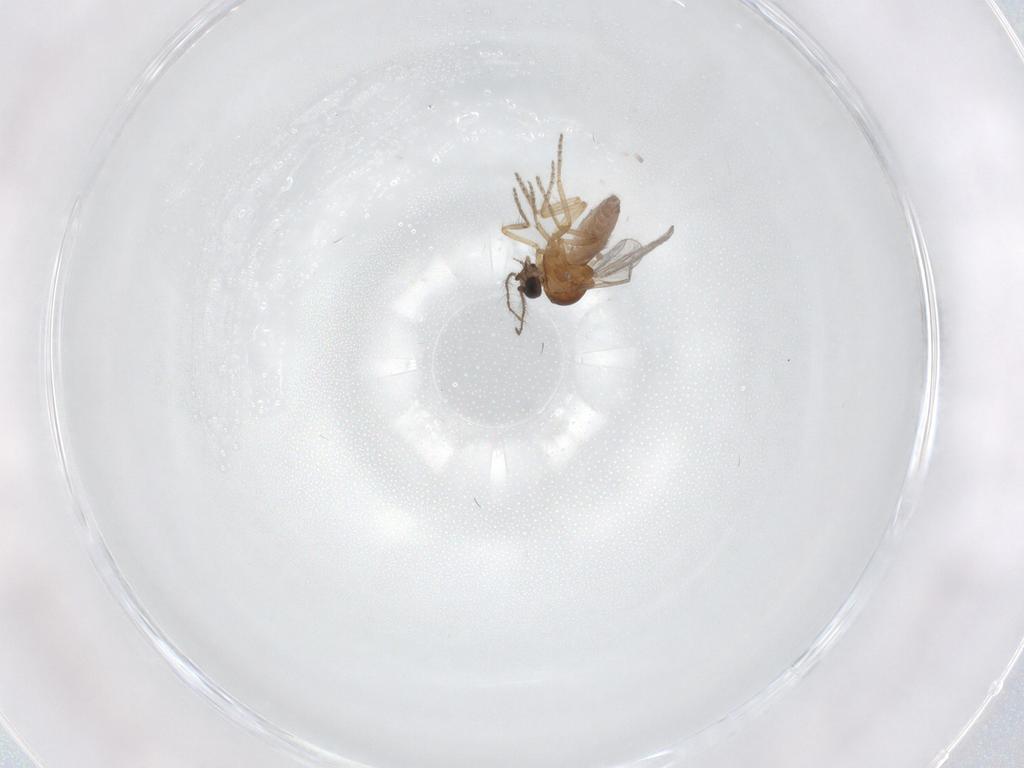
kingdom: Animalia
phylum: Arthropoda
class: Insecta
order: Diptera
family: Ceratopogonidae
